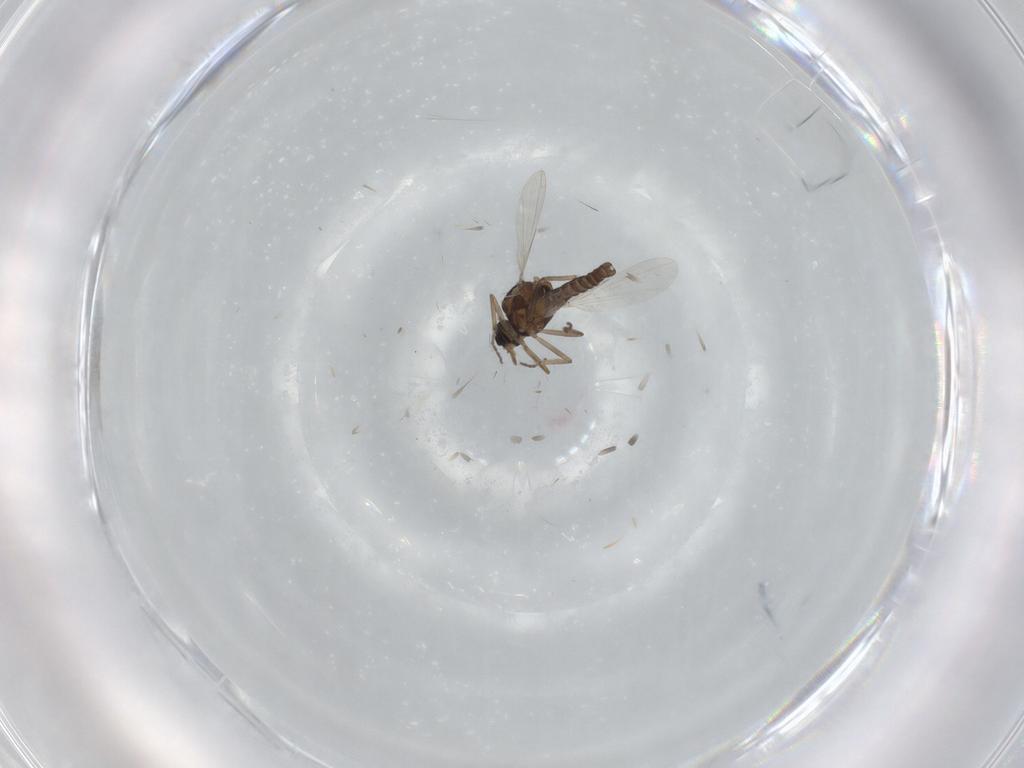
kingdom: Animalia
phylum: Arthropoda
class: Insecta
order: Diptera
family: Ceratopogonidae
